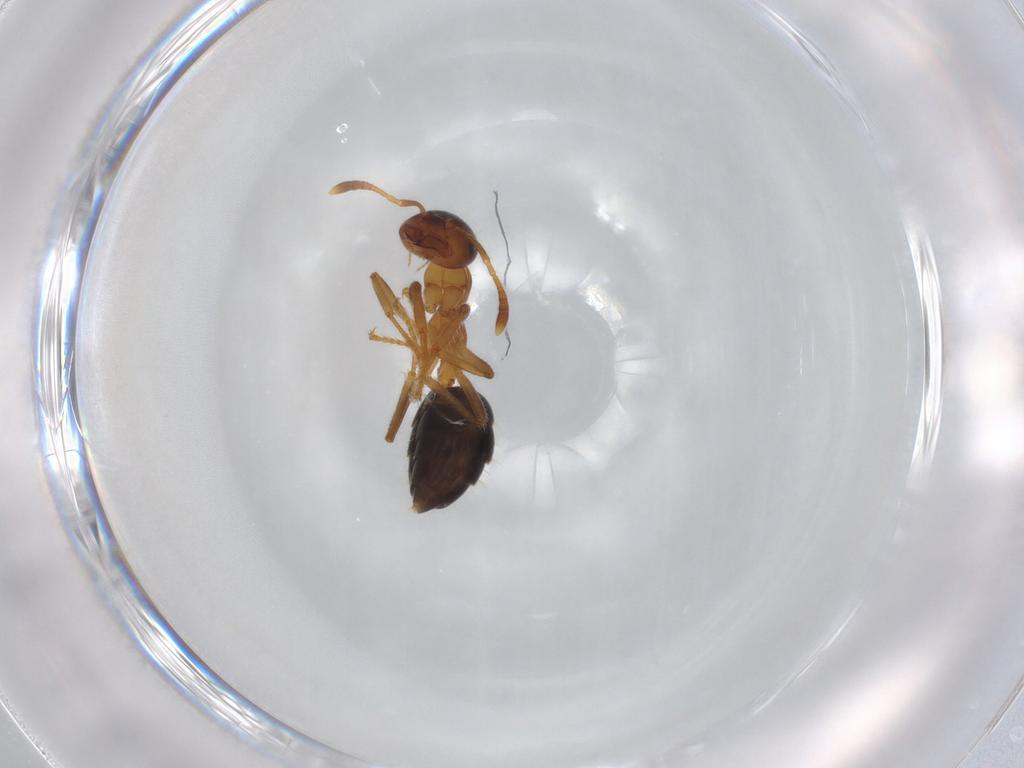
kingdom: Animalia
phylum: Arthropoda
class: Insecta
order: Hymenoptera
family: Formicidae
